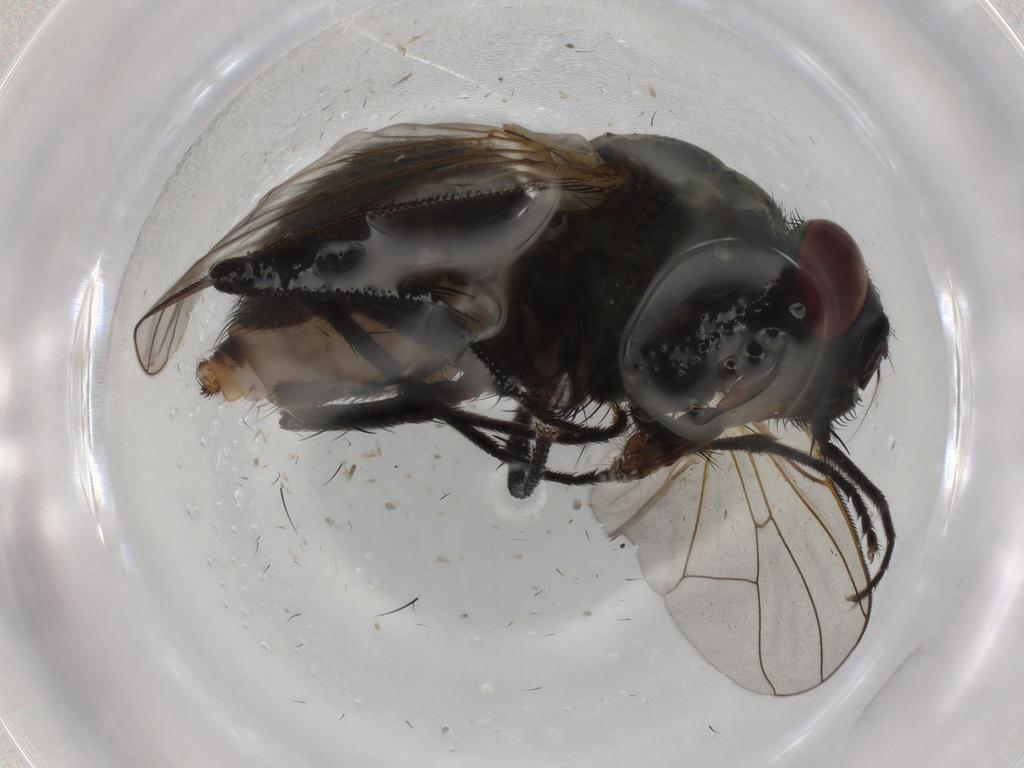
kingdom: Animalia
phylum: Arthropoda
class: Insecta
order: Diptera
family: Muscidae
